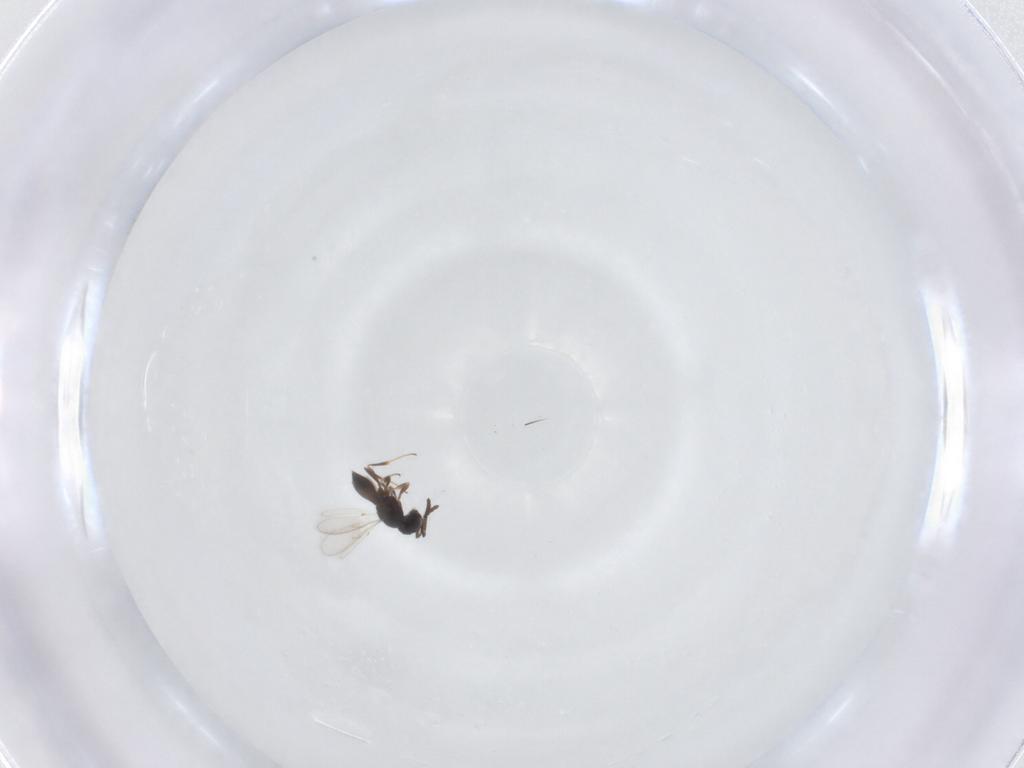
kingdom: Animalia
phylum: Arthropoda
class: Insecta
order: Hymenoptera
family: Scelionidae
